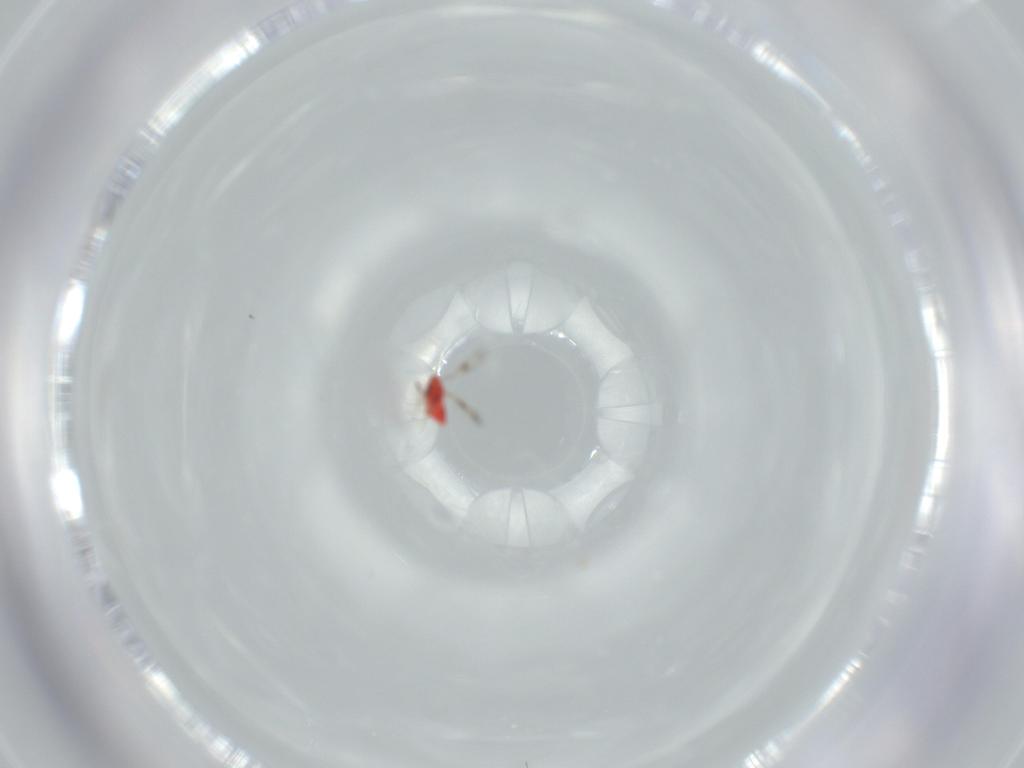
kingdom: Animalia
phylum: Arthropoda
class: Insecta
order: Hymenoptera
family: Trichogrammatidae
